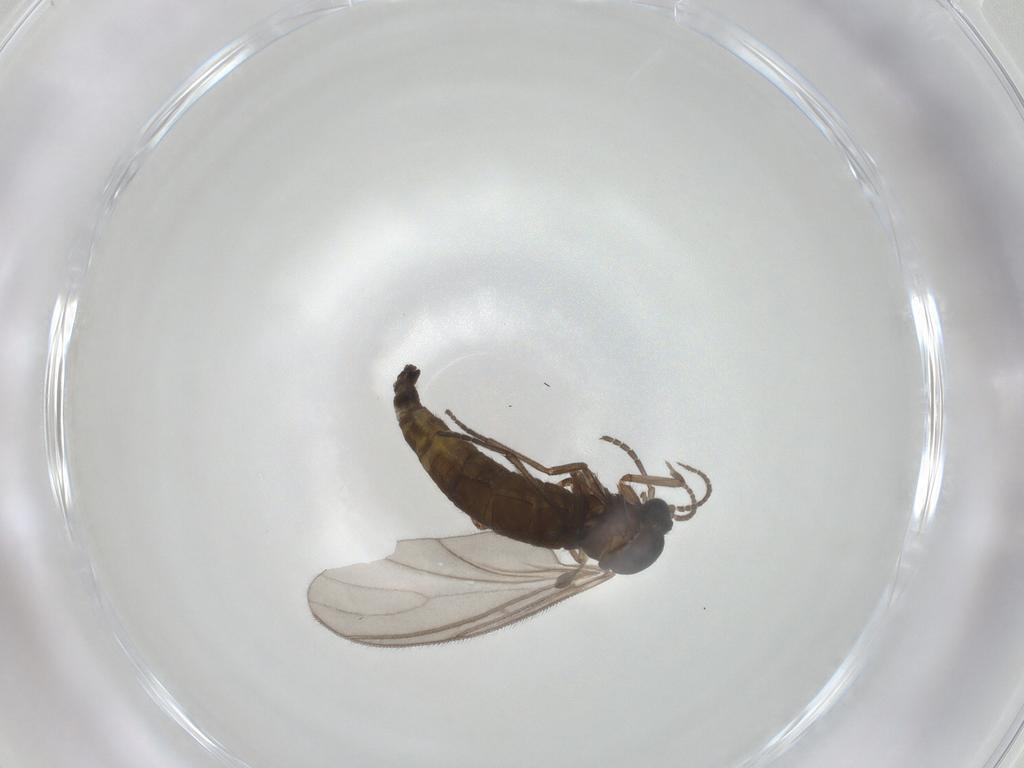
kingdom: Animalia
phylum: Arthropoda
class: Insecta
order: Diptera
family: Sciaridae
